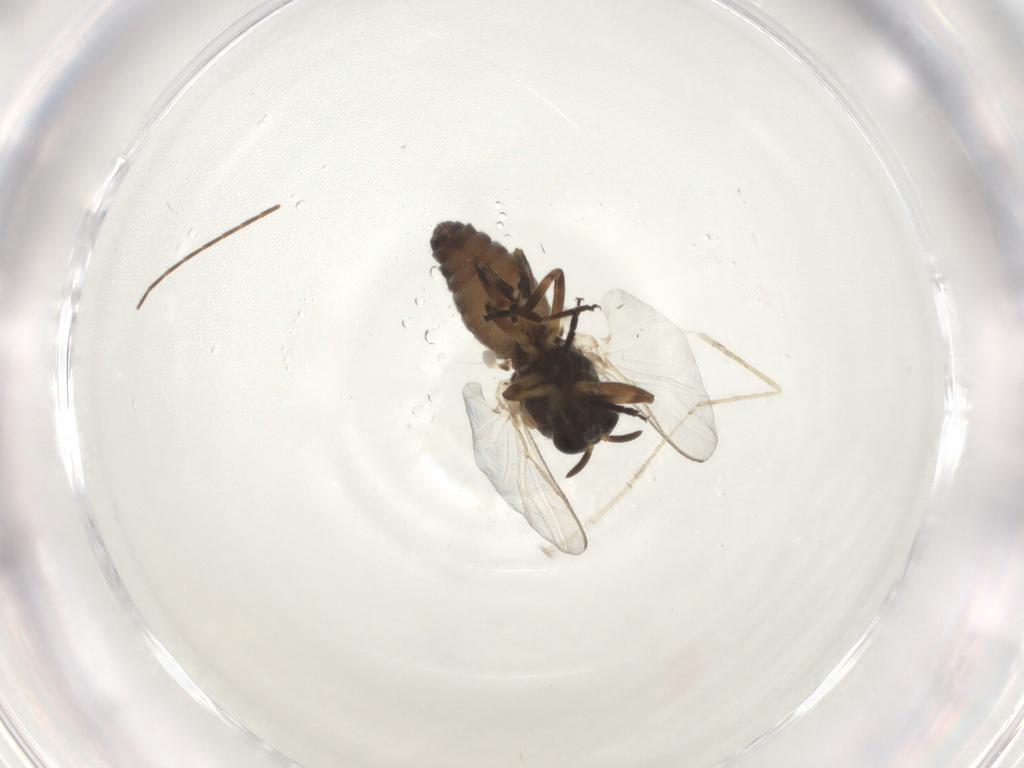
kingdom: Animalia
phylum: Arthropoda
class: Insecta
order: Diptera
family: Chironomidae
